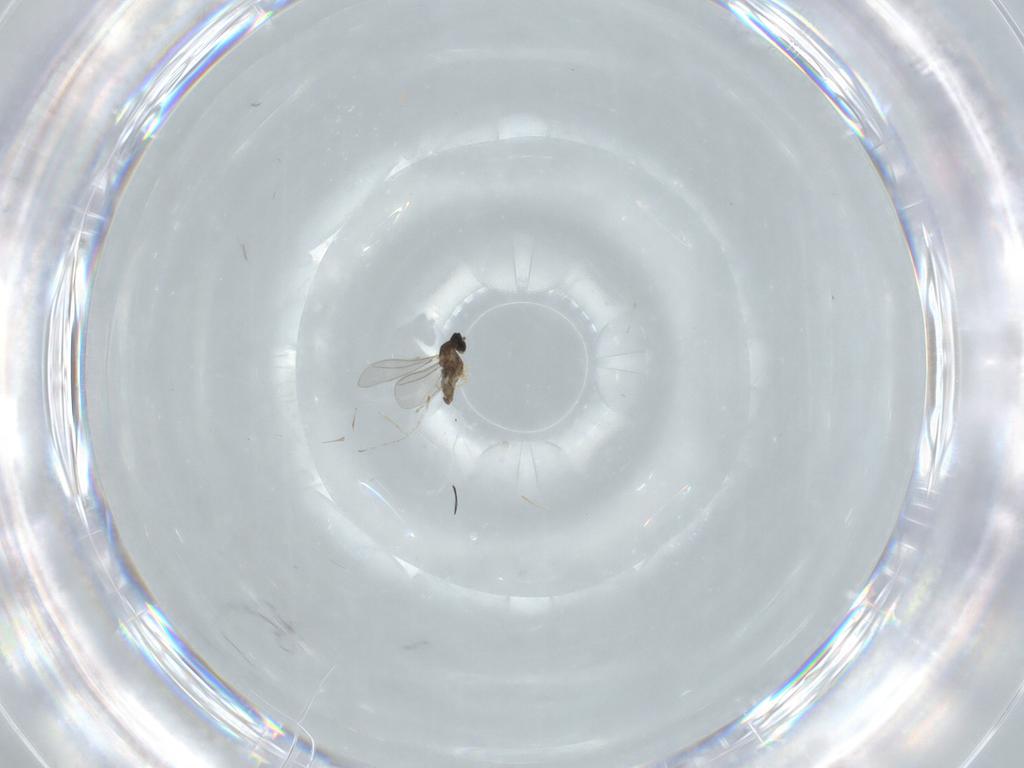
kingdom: Animalia
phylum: Arthropoda
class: Insecta
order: Diptera
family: Cecidomyiidae
